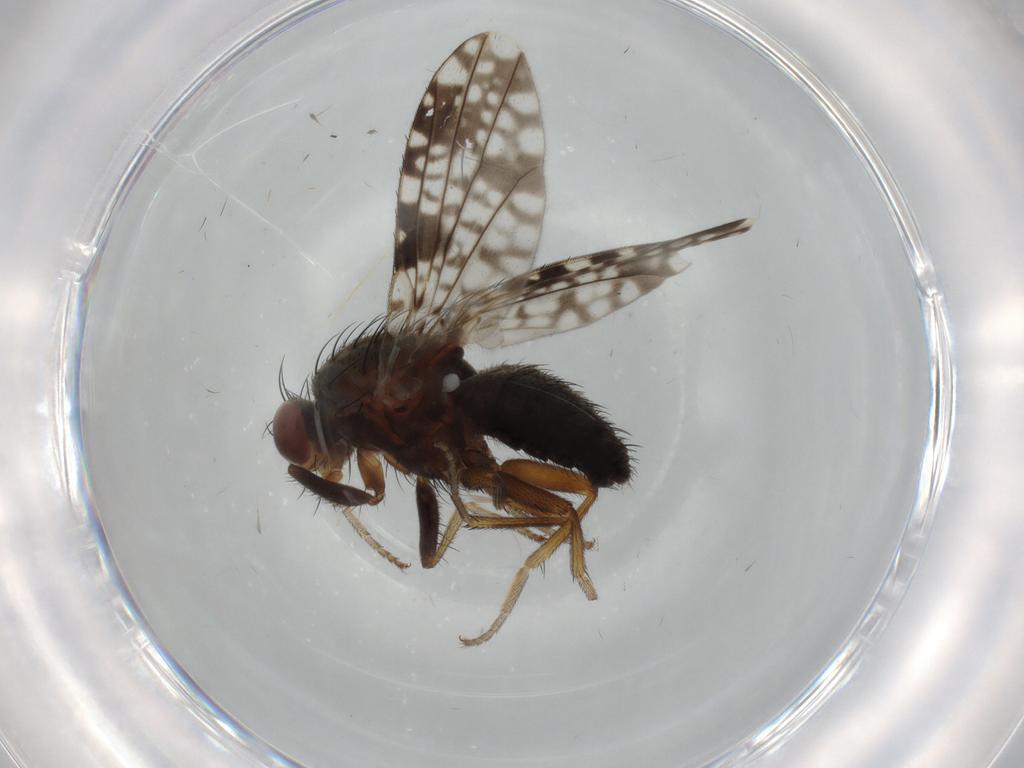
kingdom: Animalia
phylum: Arthropoda
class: Insecta
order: Diptera
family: Tephritidae
